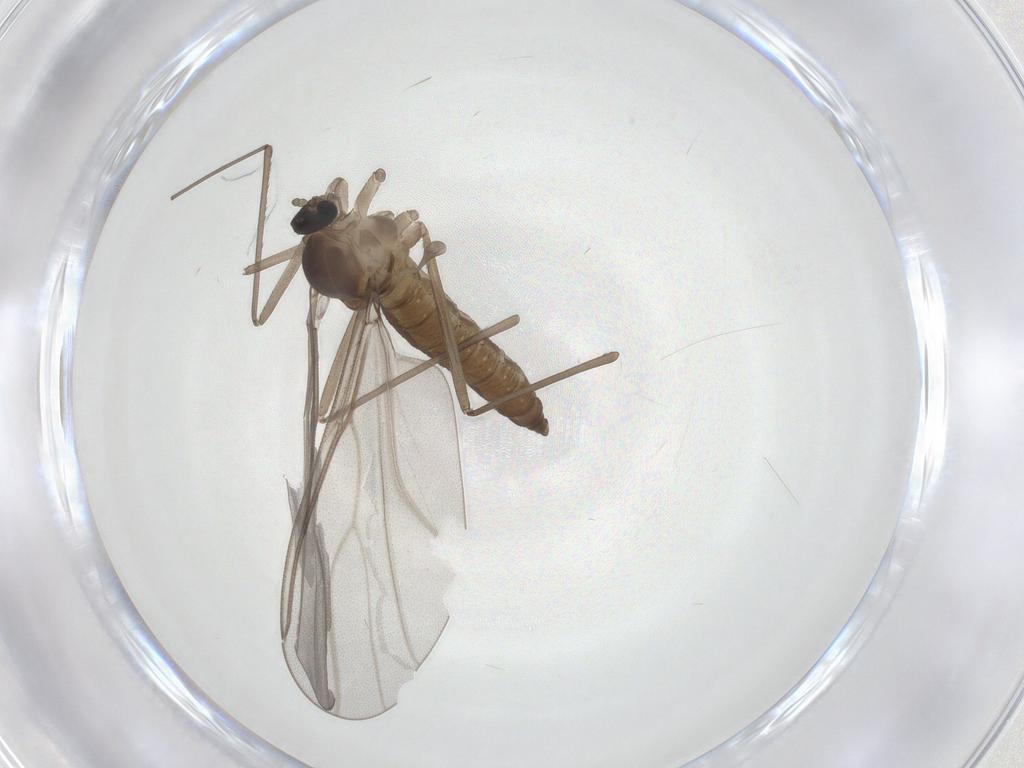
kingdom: Animalia
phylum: Arthropoda
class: Insecta
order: Diptera
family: Cecidomyiidae
